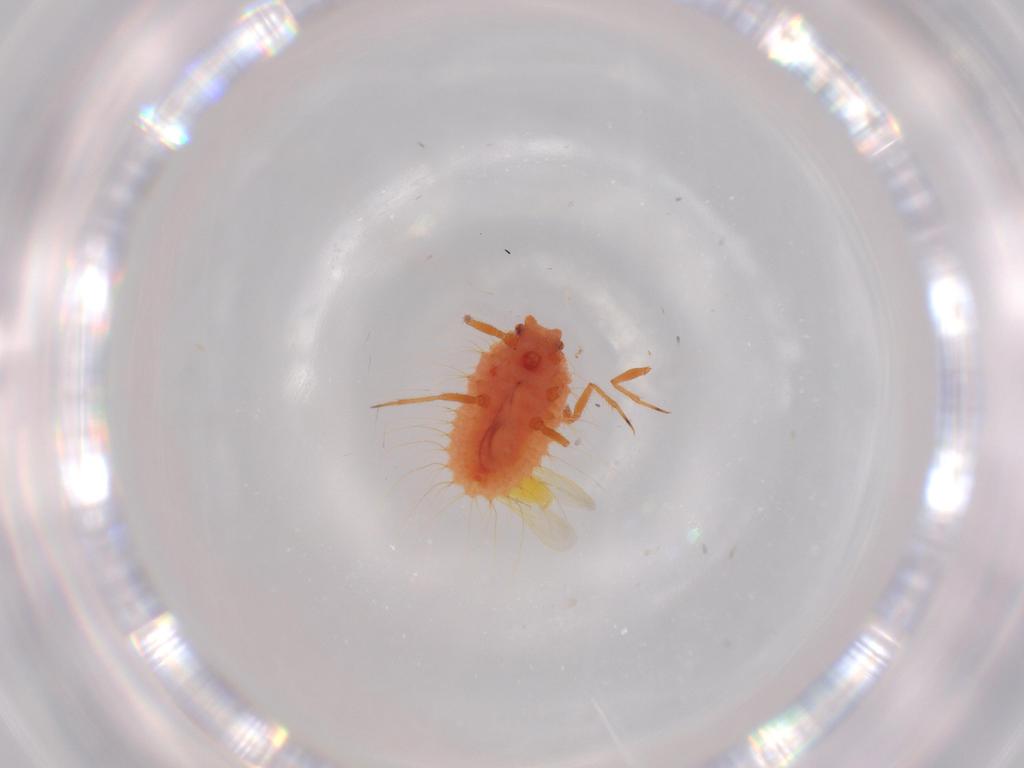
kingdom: Animalia
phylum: Arthropoda
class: Insecta
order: Hemiptera
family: Aleyrodidae
